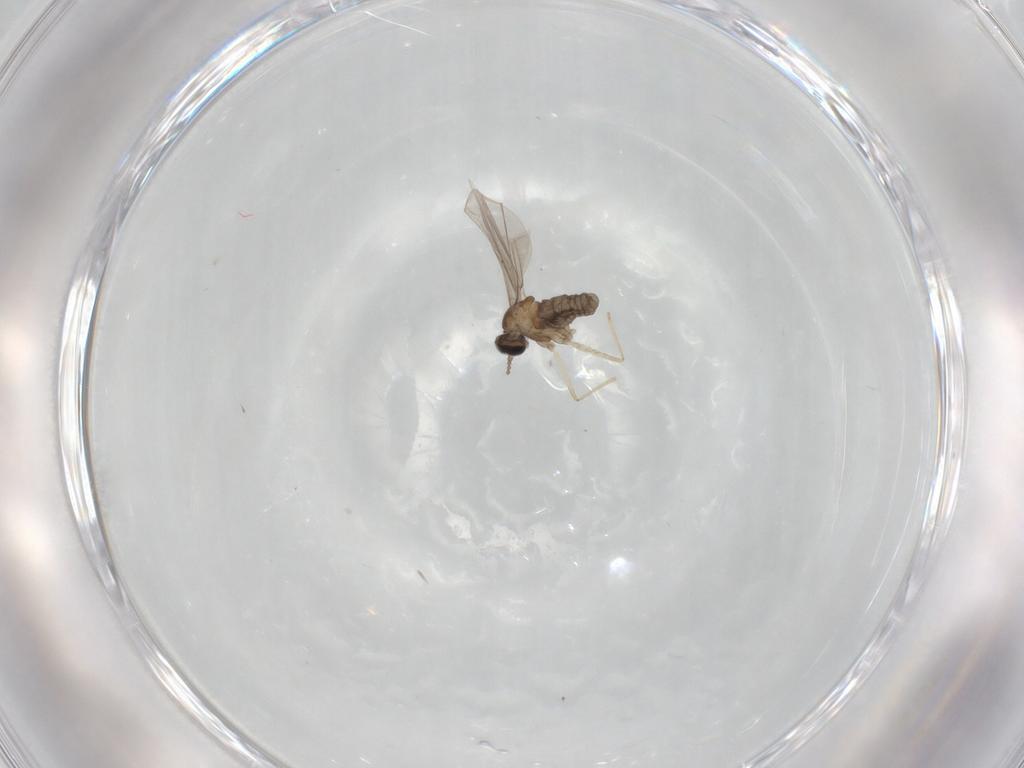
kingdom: Animalia
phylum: Arthropoda
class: Insecta
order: Diptera
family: Cecidomyiidae
